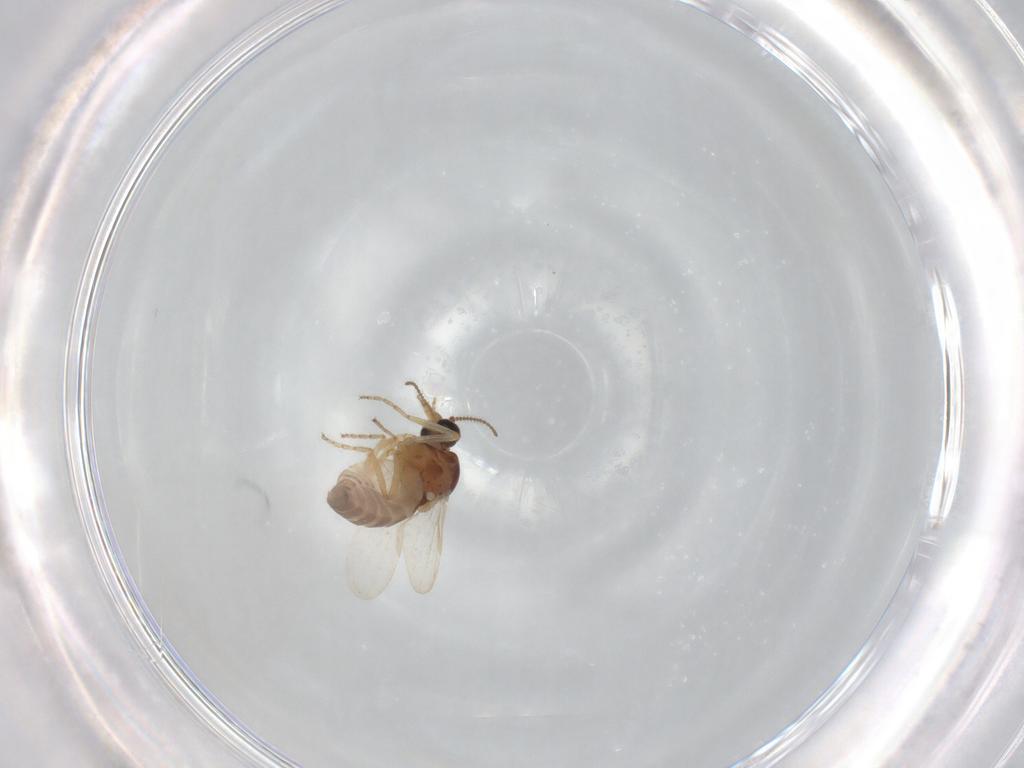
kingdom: Animalia
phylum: Arthropoda
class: Insecta
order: Diptera
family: Ceratopogonidae
